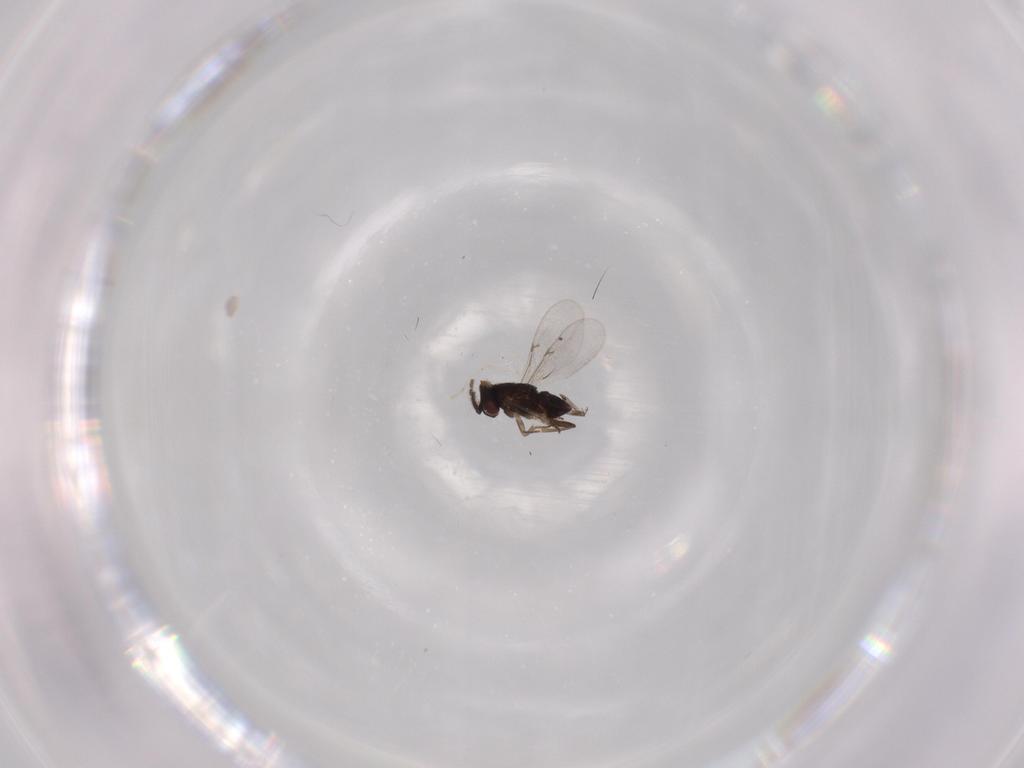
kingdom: Animalia
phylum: Arthropoda
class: Insecta
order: Hymenoptera
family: Encyrtidae
